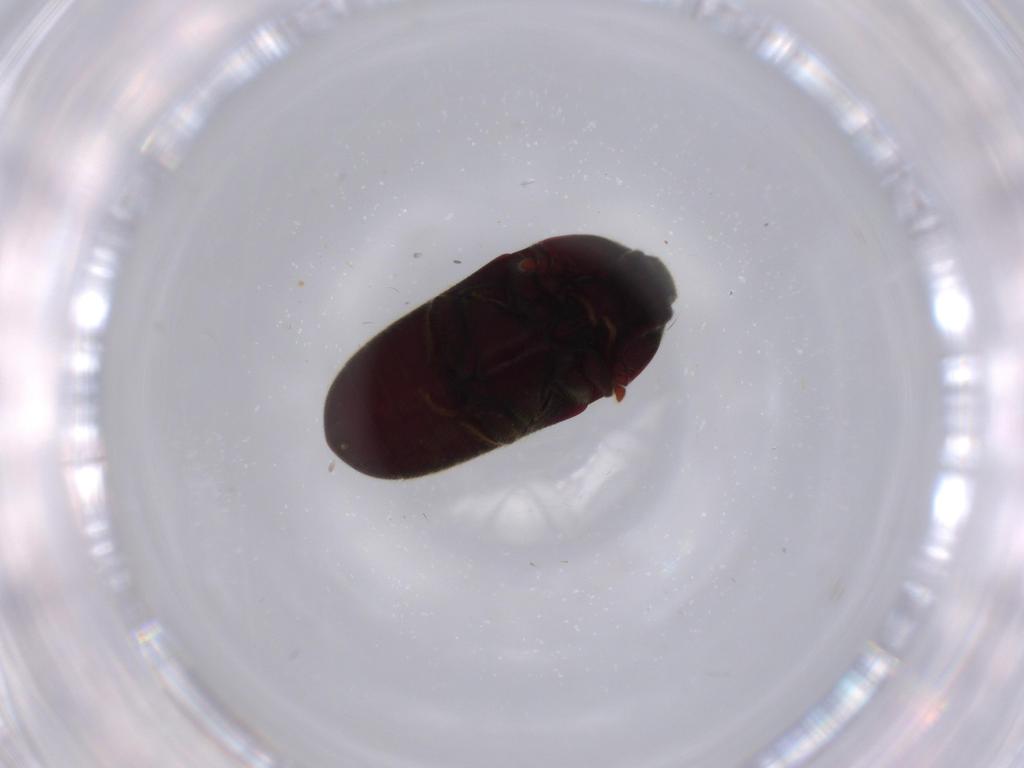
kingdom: Animalia
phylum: Arthropoda
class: Insecta
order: Coleoptera
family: Throscidae
